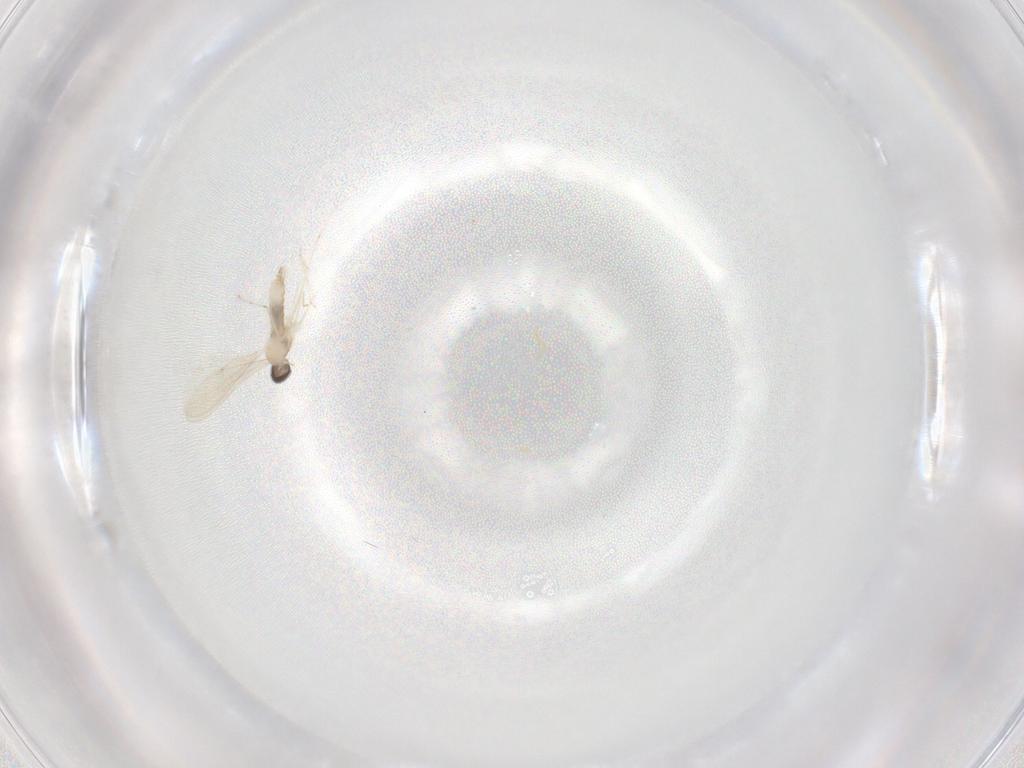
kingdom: Animalia
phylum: Arthropoda
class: Insecta
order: Diptera
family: Cecidomyiidae
